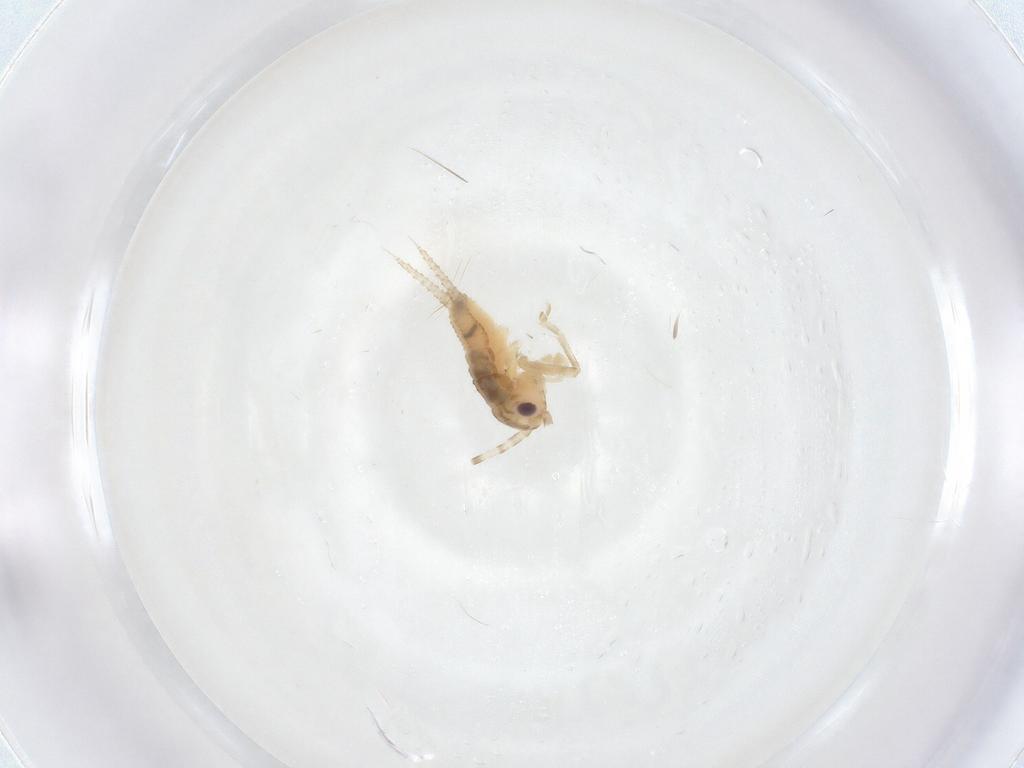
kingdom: Animalia
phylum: Arthropoda
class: Insecta
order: Orthoptera
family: Trigonidiidae
